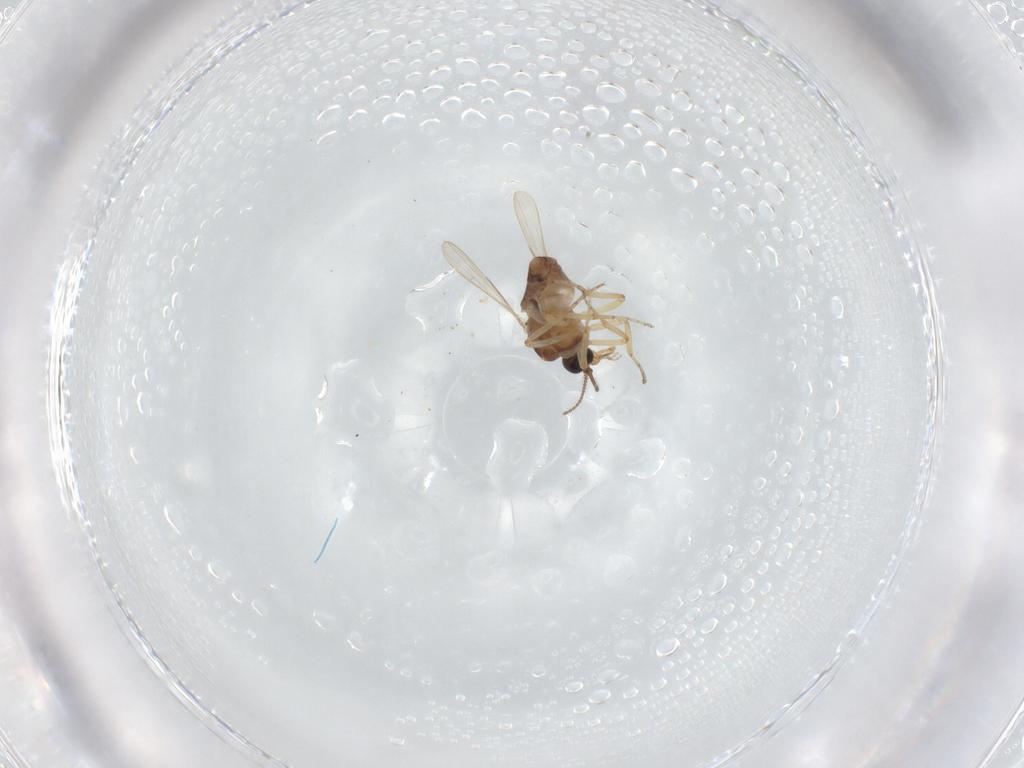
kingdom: Animalia
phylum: Arthropoda
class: Insecta
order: Diptera
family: Ceratopogonidae
